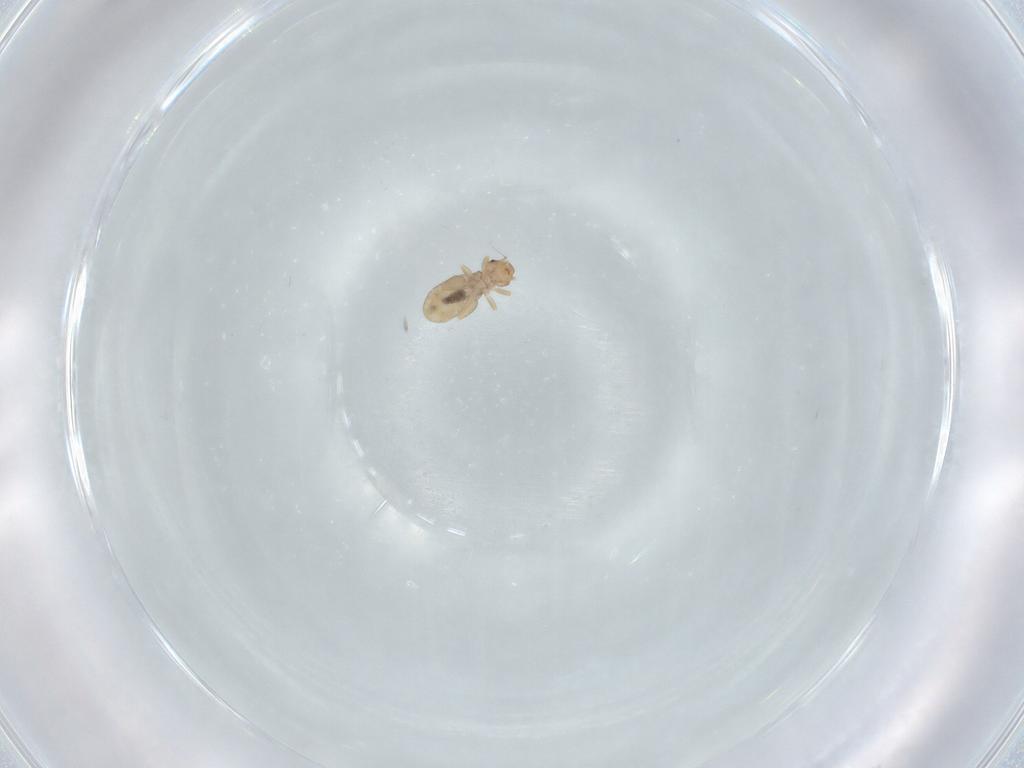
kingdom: Animalia
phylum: Arthropoda
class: Insecta
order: Psocodea
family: Liposcelididae
